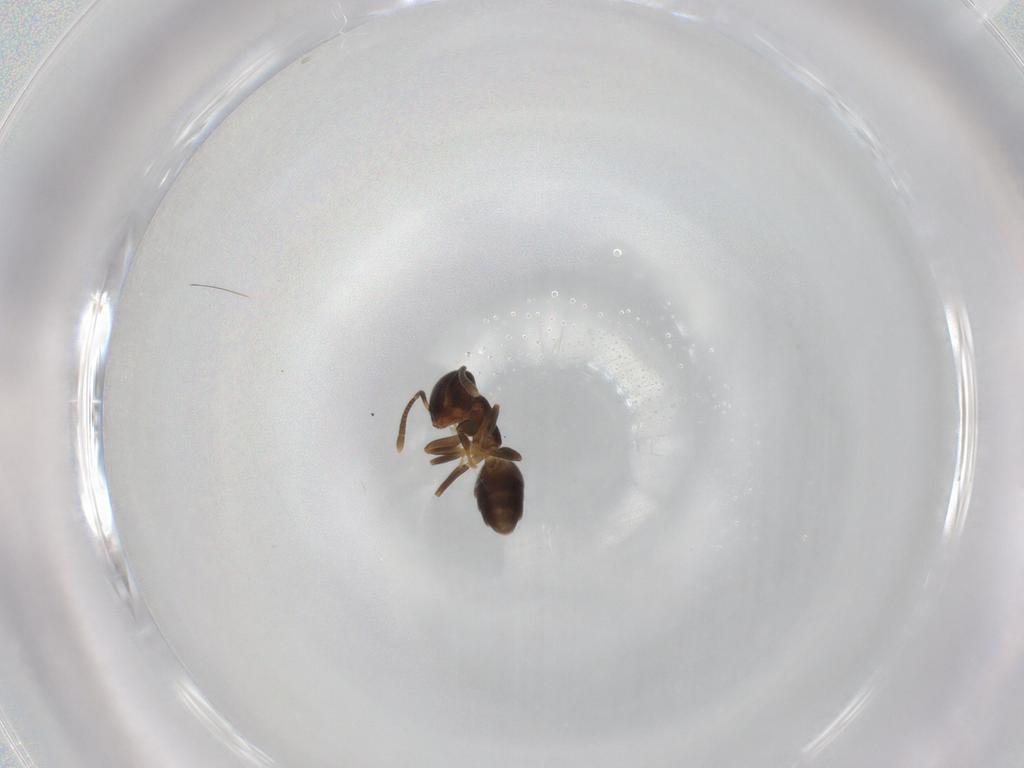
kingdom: Animalia
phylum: Arthropoda
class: Insecta
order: Hymenoptera
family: Formicidae
